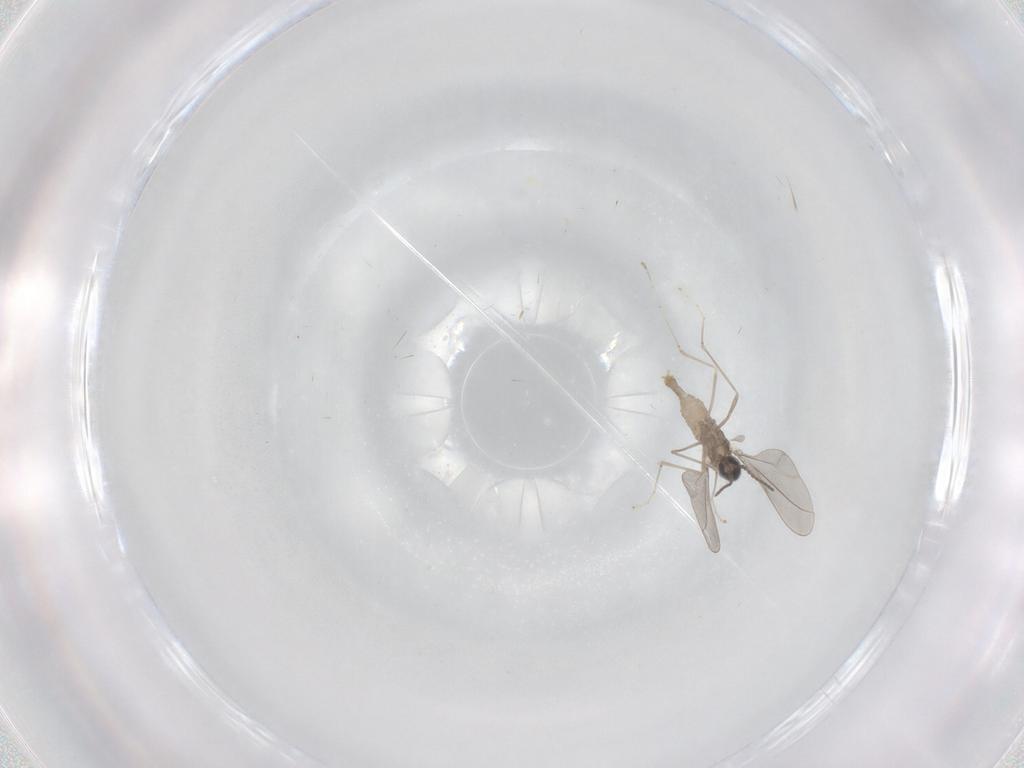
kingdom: Animalia
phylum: Arthropoda
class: Insecta
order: Diptera
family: Cecidomyiidae
